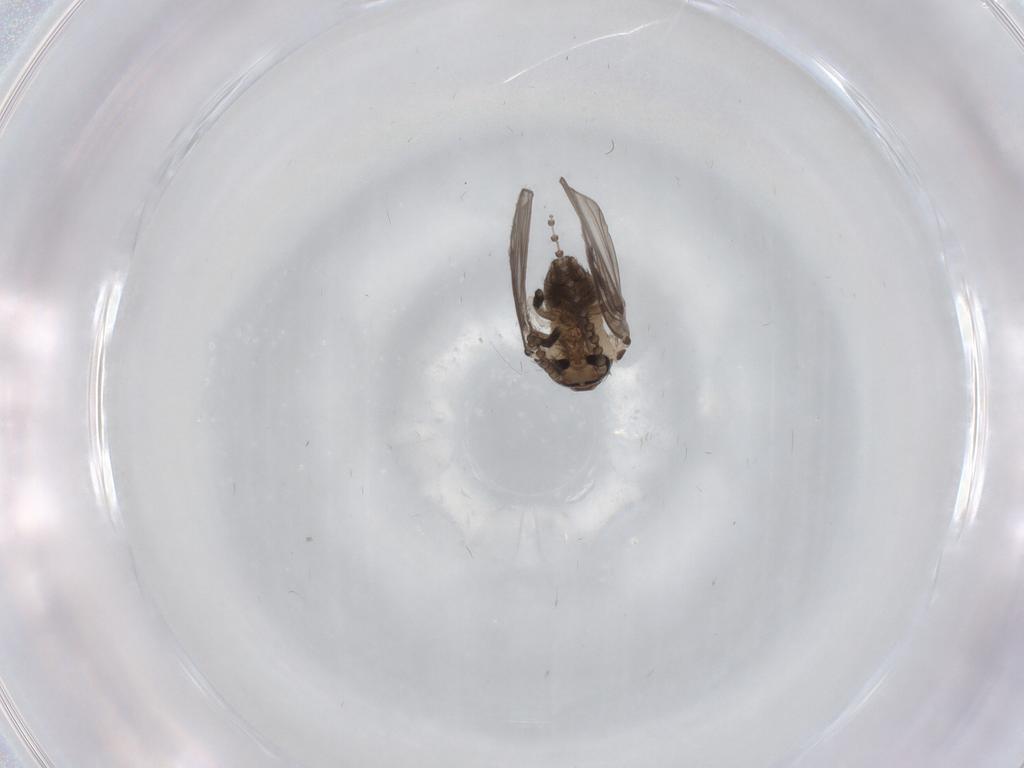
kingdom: Animalia
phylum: Arthropoda
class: Insecta
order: Diptera
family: Psychodidae
